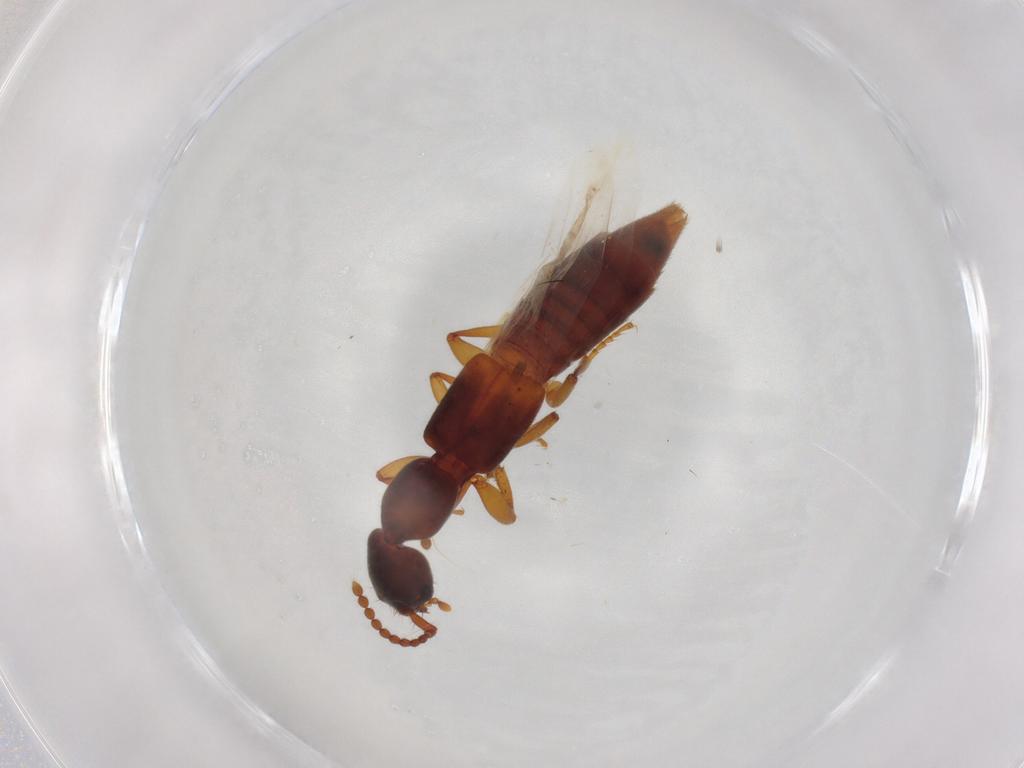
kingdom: Animalia
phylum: Arthropoda
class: Insecta
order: Coleoptera
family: Staphylinidae
